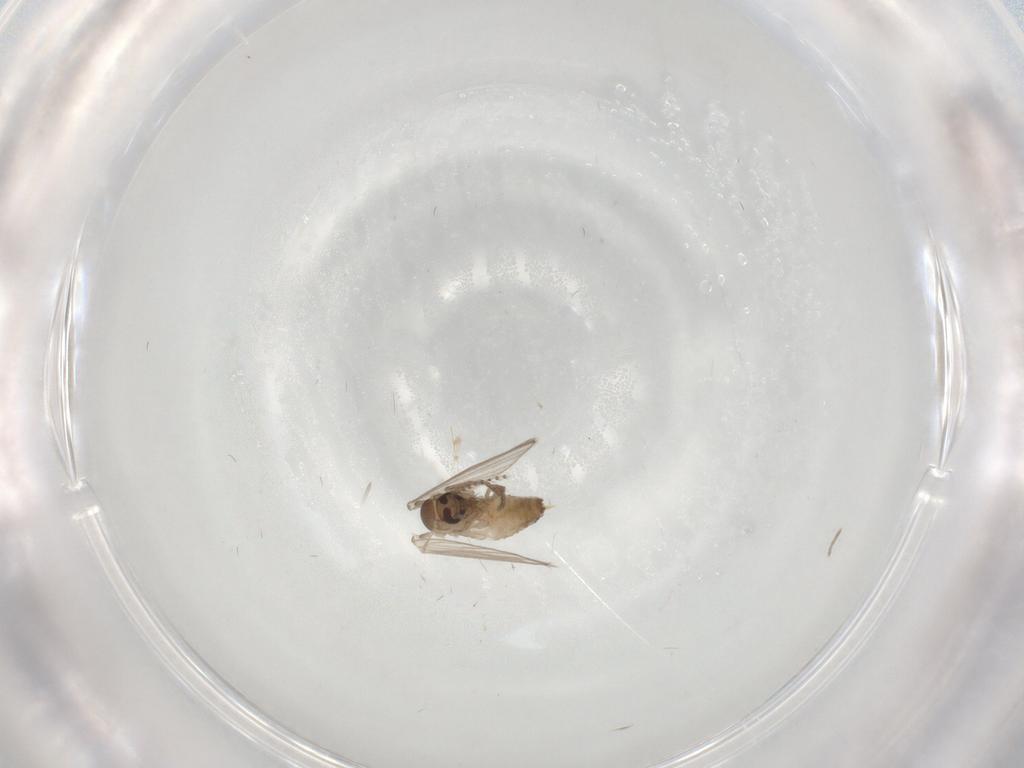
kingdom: Animalia
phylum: Arthropoda
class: Insecta
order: Diptera
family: Psychodidae
